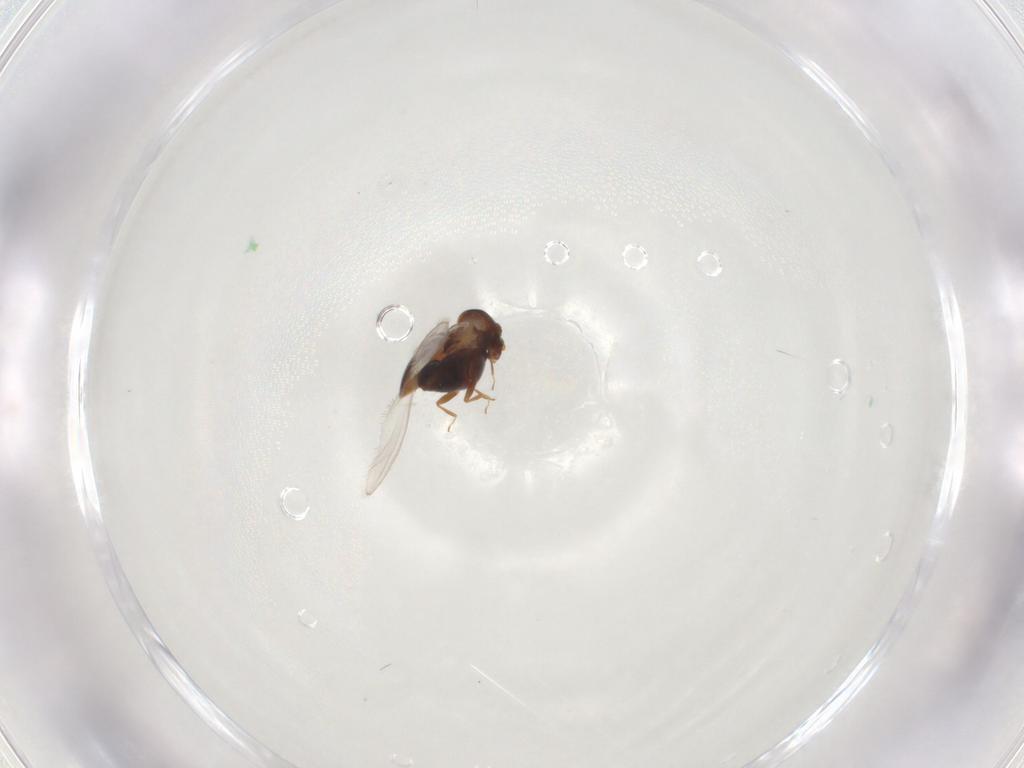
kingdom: Animalia
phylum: Arthropoda
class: Insecta
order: Coleoptera
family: Corylophidae
